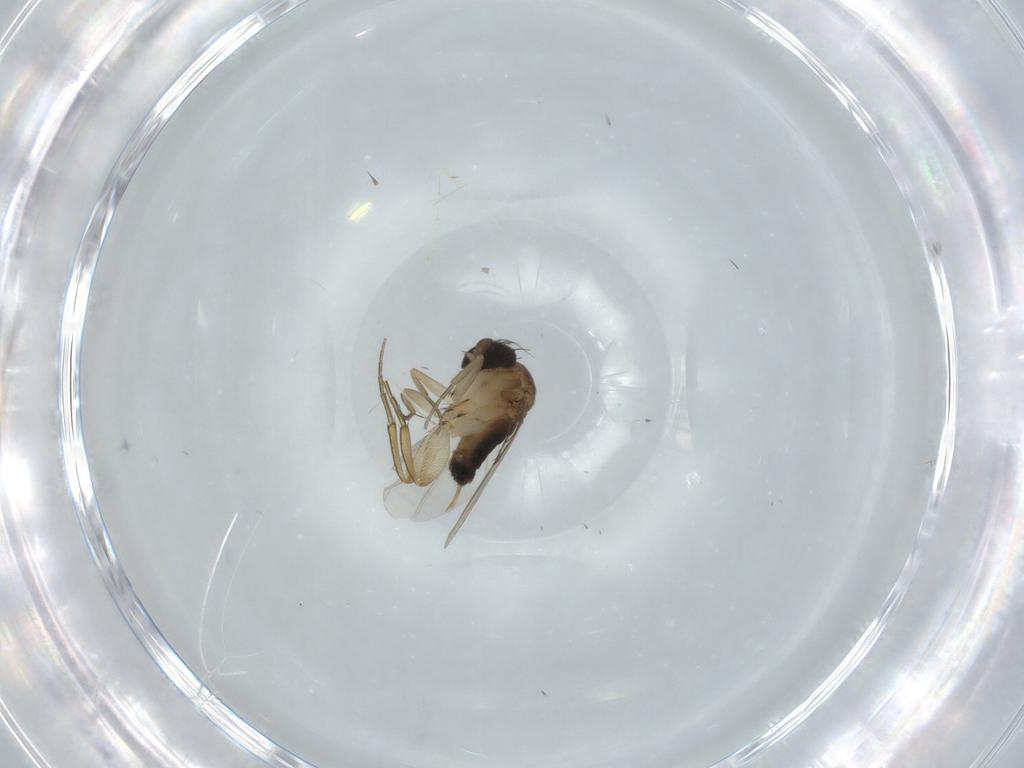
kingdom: Animalia
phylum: Arthropoda
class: Insecta
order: Diptera
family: Phoridae
